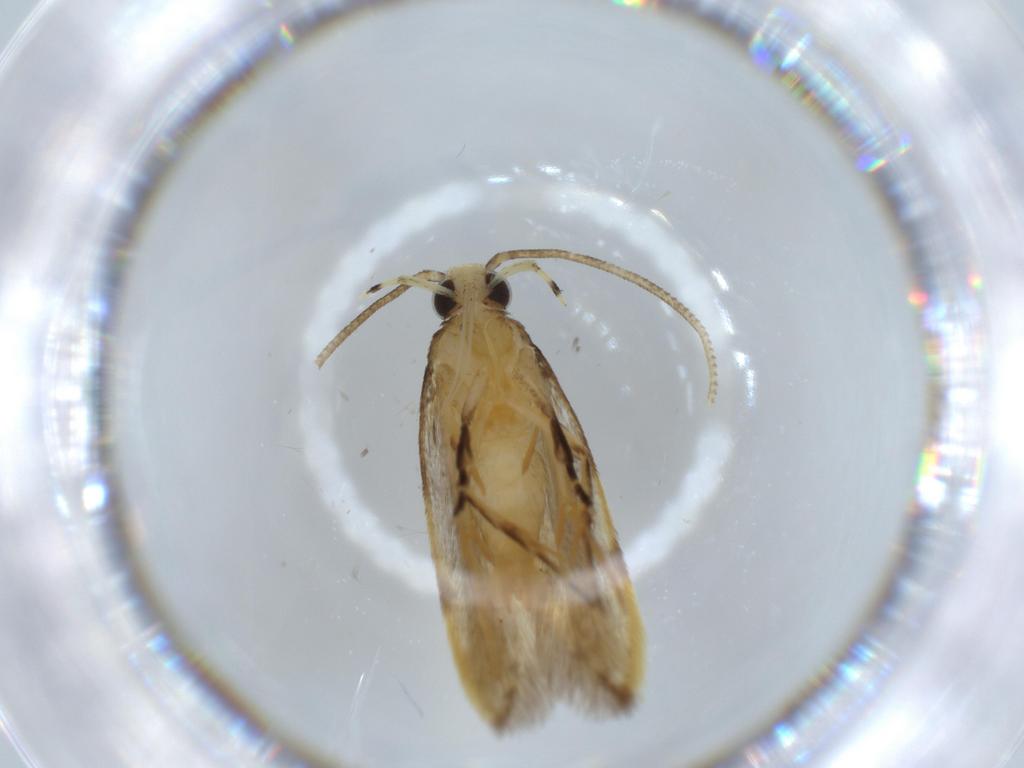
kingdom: Animalia
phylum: Arthropoda
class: Insecta
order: Lepidoptera
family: Autostichidae
